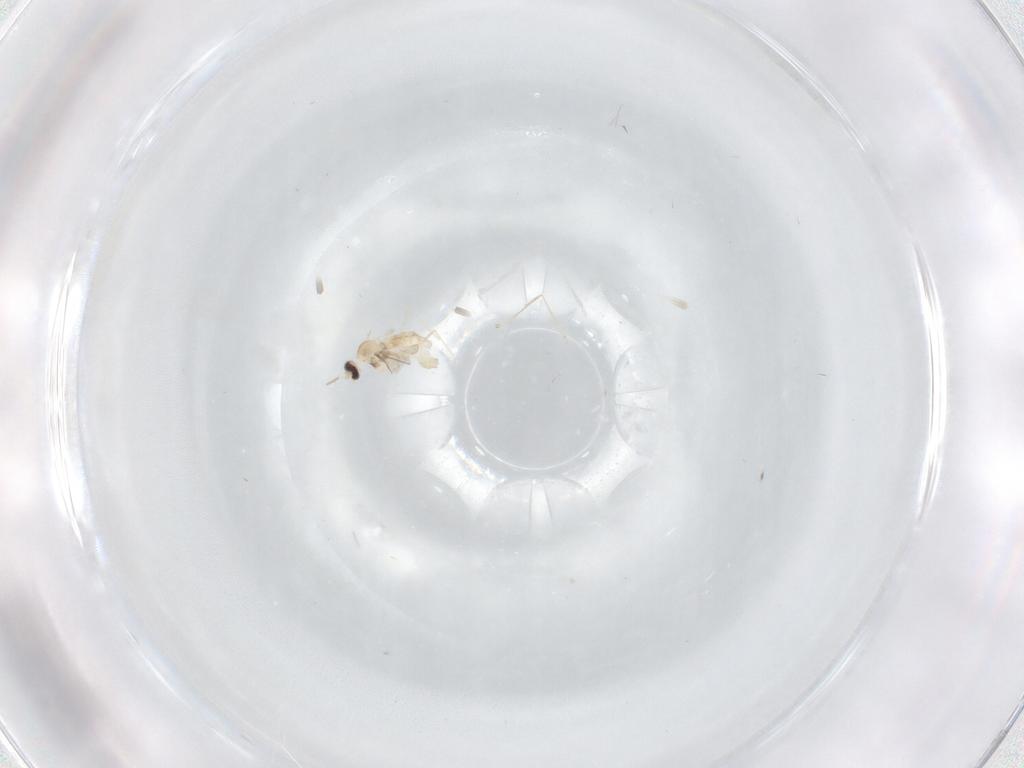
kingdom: Animalia
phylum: Arthropoda
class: Insecta
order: Diptera
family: Cecidomyiidae
